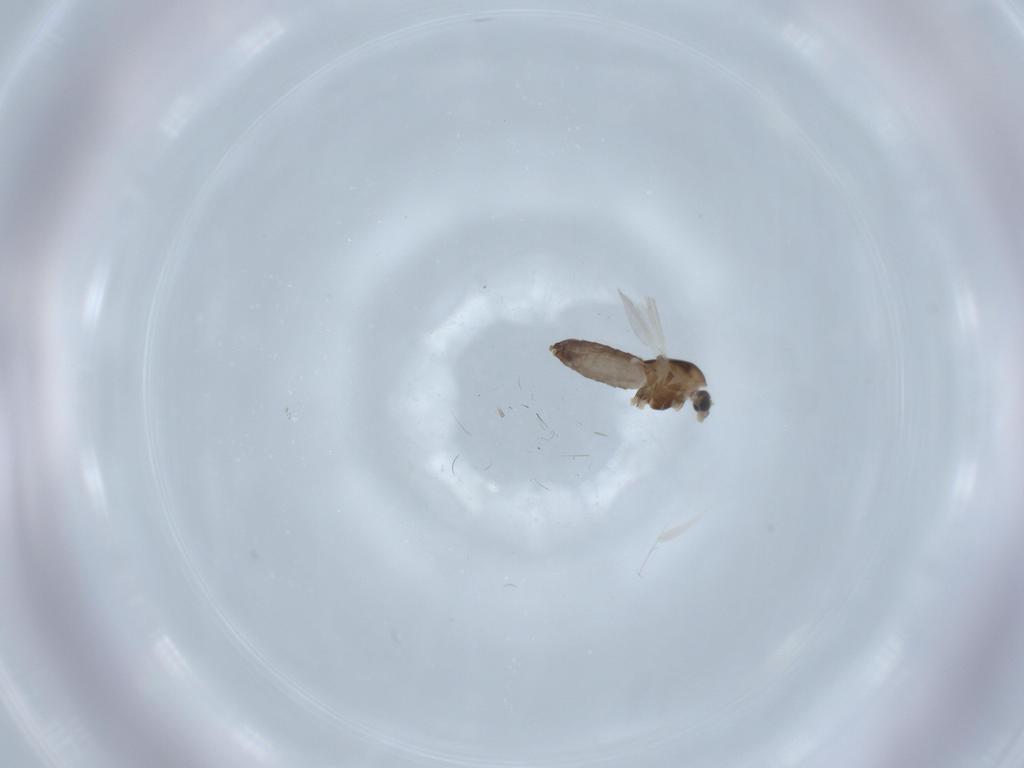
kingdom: Animalia
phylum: Arthropoda
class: Insecta
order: Diptera
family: Chironomidae
